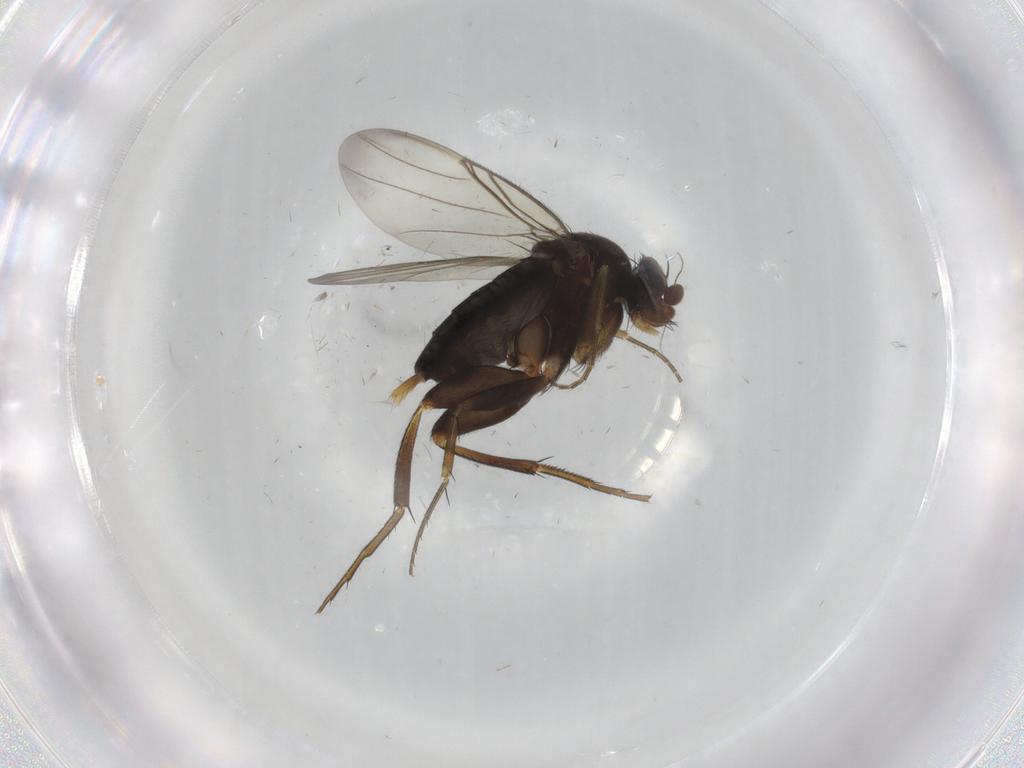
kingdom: Animalia
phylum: Arthropoda
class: Insecta
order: Diptera
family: Phoridae
